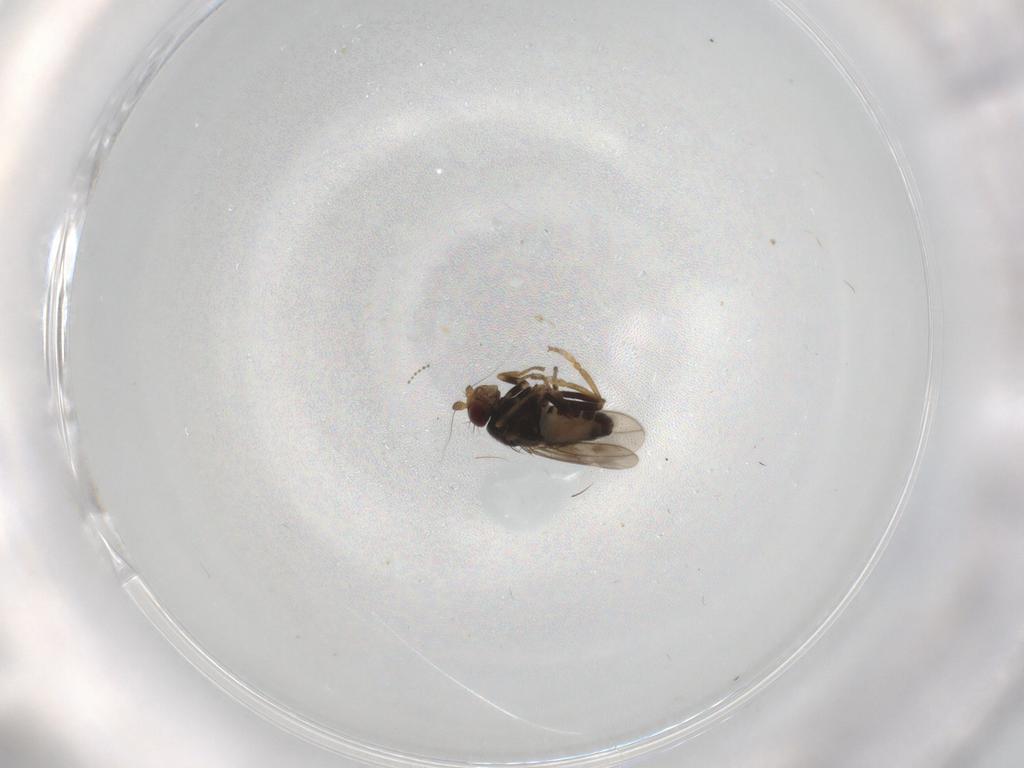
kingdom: Animalia
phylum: Arthropoda
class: Insecta
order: Diptera
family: Sphaeroceridae
